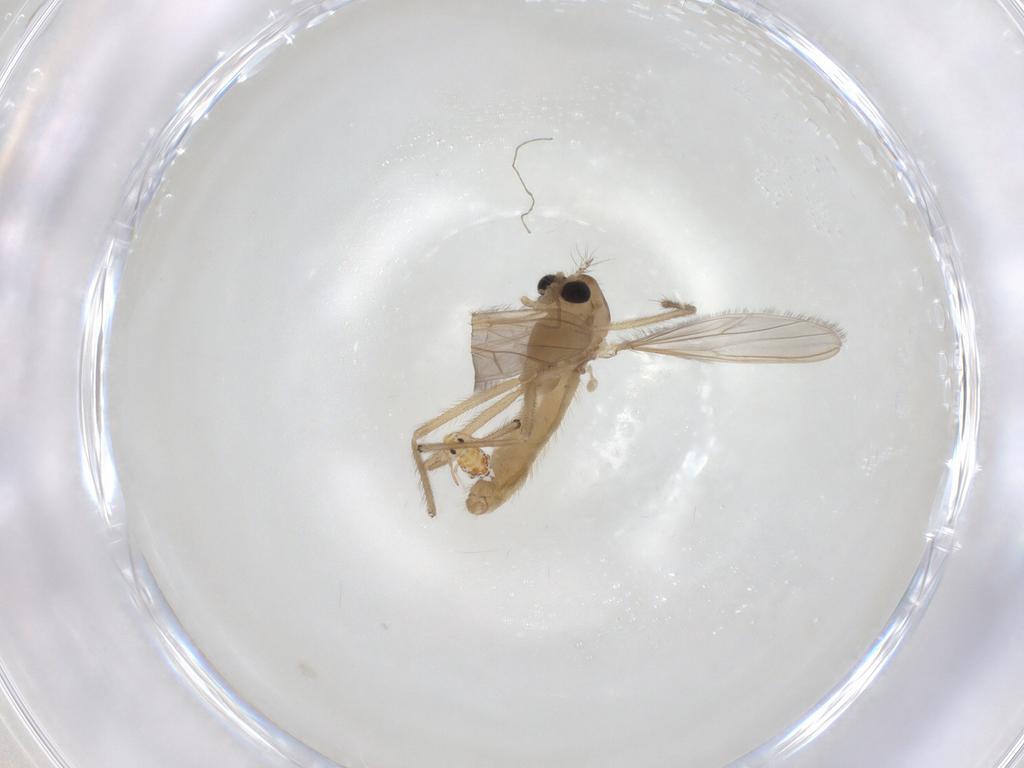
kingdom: Animalia
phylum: Arthropoda
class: Insecta
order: Diptera
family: Chironomidae
